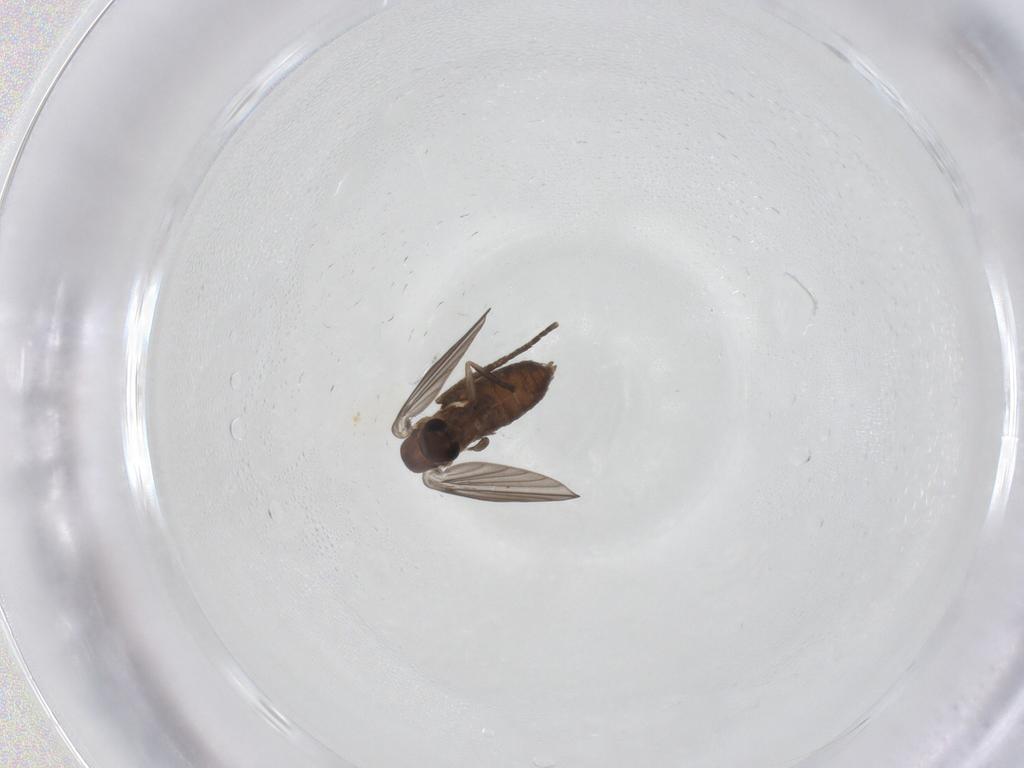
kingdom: Animalia
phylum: Arthropoda
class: Insecta
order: Diptera
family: Psychodidae
